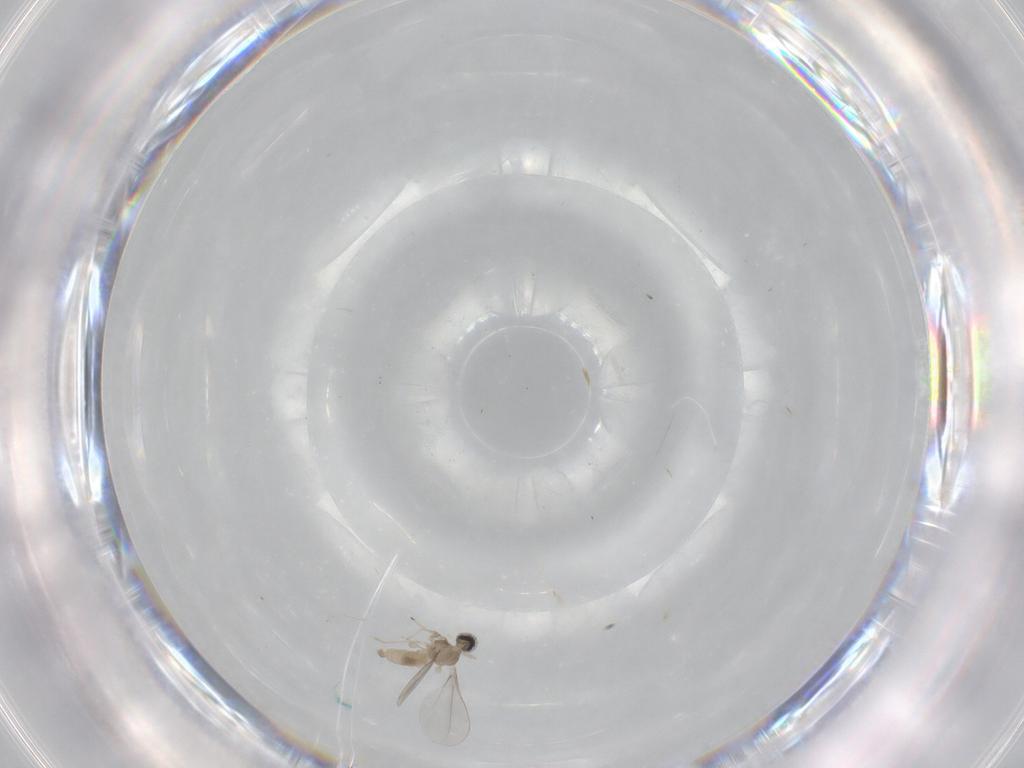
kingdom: Animalia
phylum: Arthropoda
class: Insecta
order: Diptera
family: Cecidomyiidae
